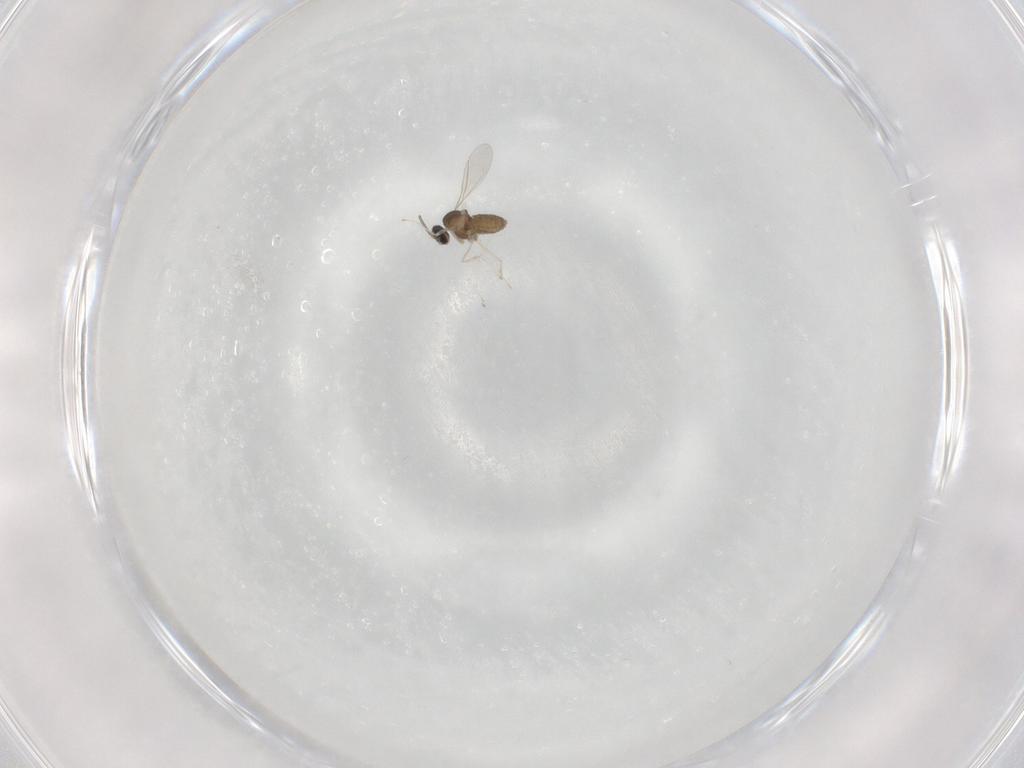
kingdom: Animalia
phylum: Arthropoda
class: Insecta
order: Diptera
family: Cecidomyiidae
